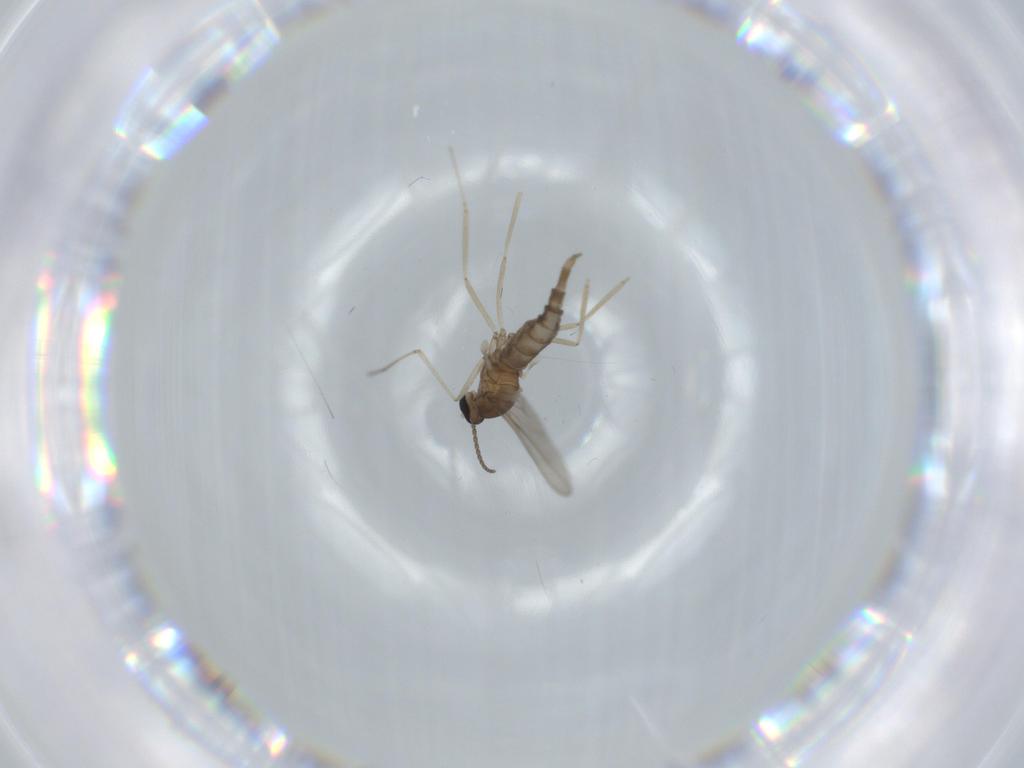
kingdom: Animalia
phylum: Arthropoda
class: Insecta
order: Diptera
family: Cecidomyiidae
